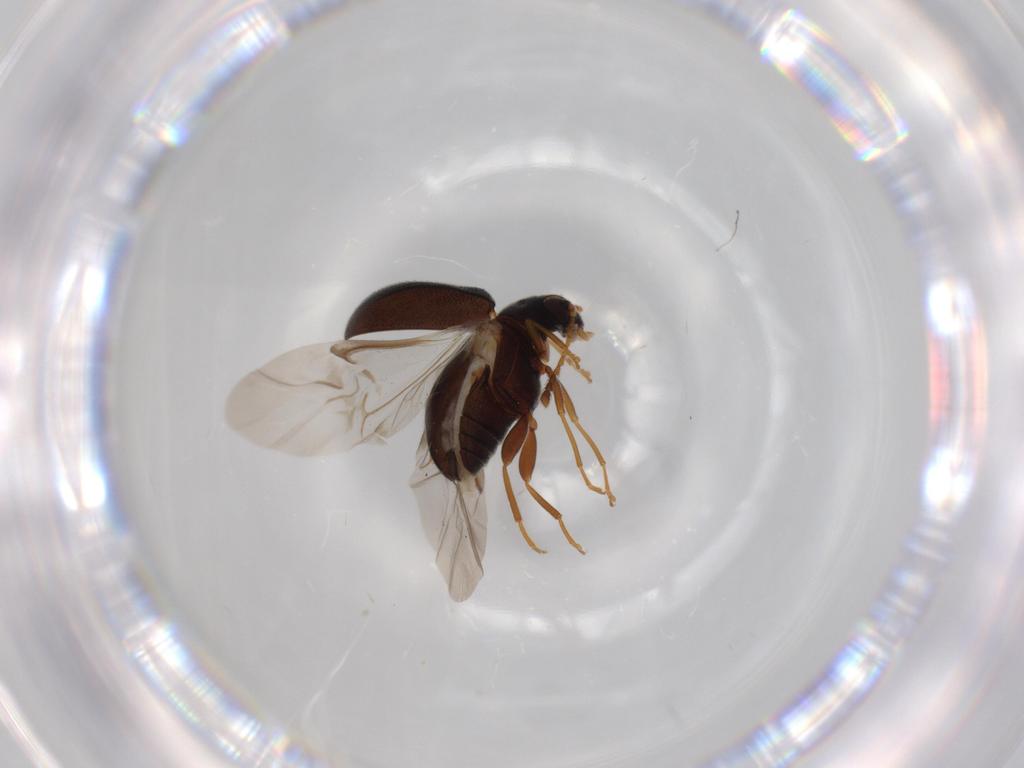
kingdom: Animalia
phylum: Arthropoda
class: Insecta
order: Coleoptera
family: Aderidae
